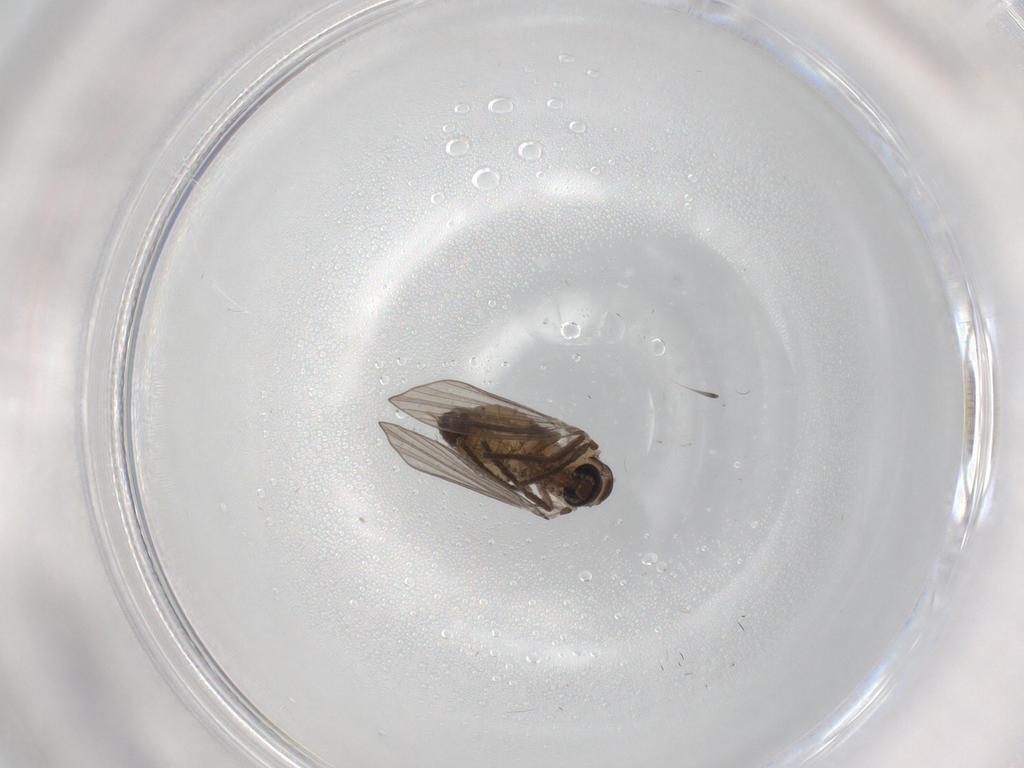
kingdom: Animalia
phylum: Arthropoda
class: Insecta
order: Diptera
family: Psychodidae
